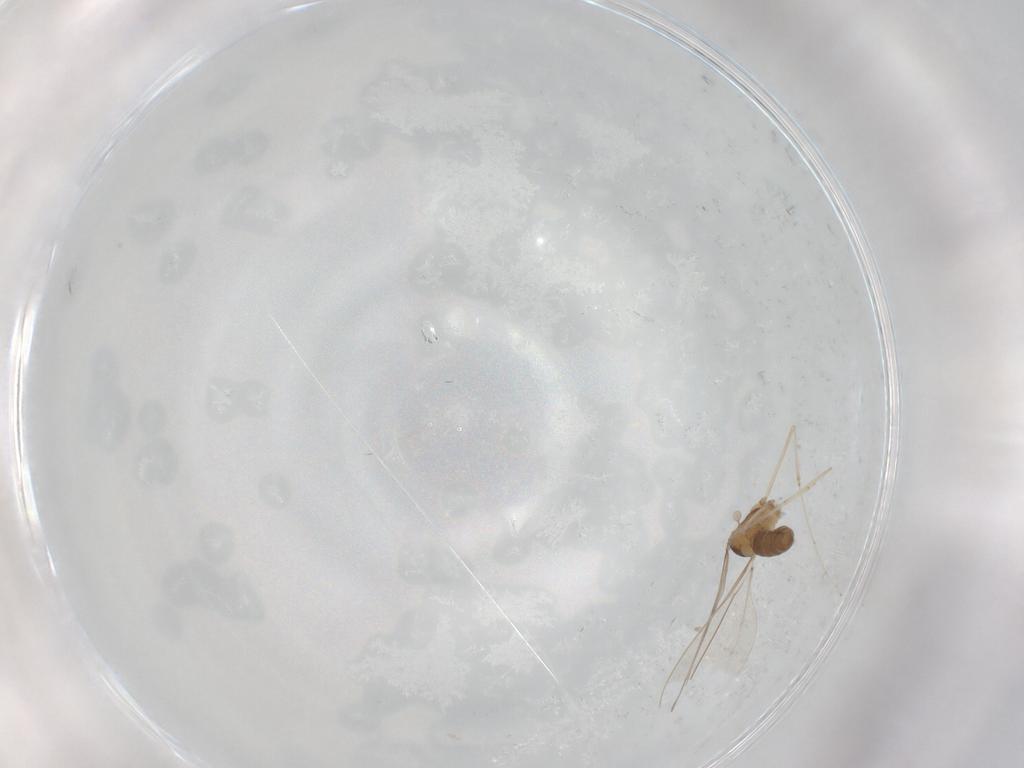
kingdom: Animalia
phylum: Arthropoda
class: Insecta
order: Diptera
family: Cecidomyiidae
